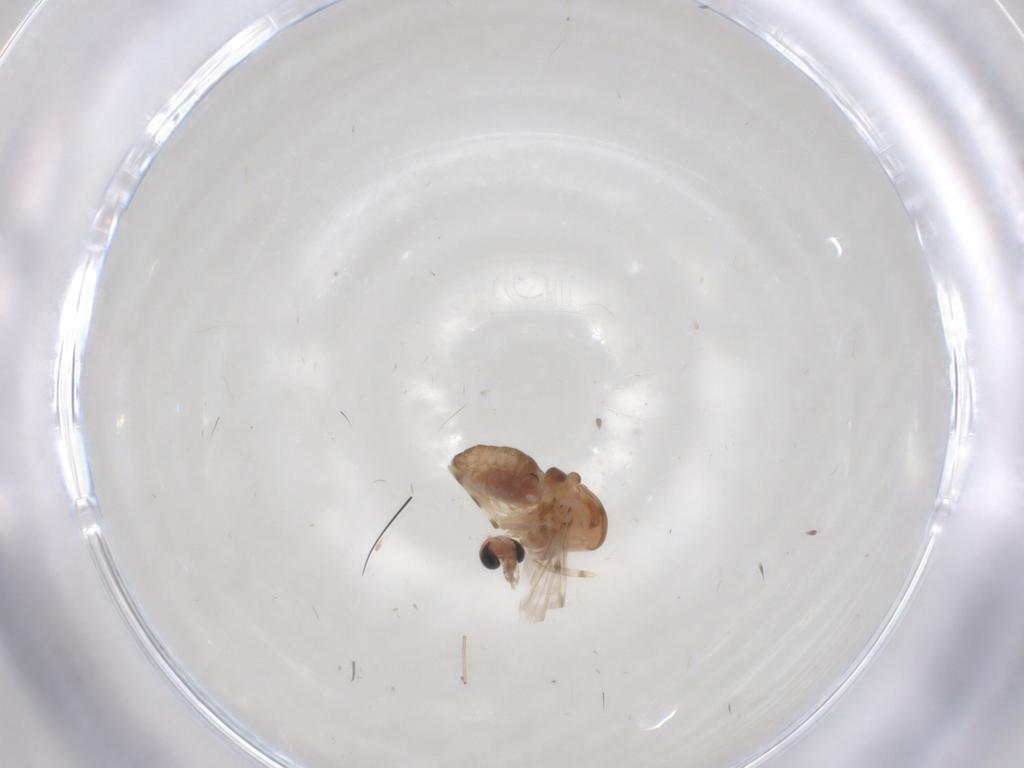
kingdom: Animalia
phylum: Arthropoda
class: Insecta
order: Diptera
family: Chironomidae
